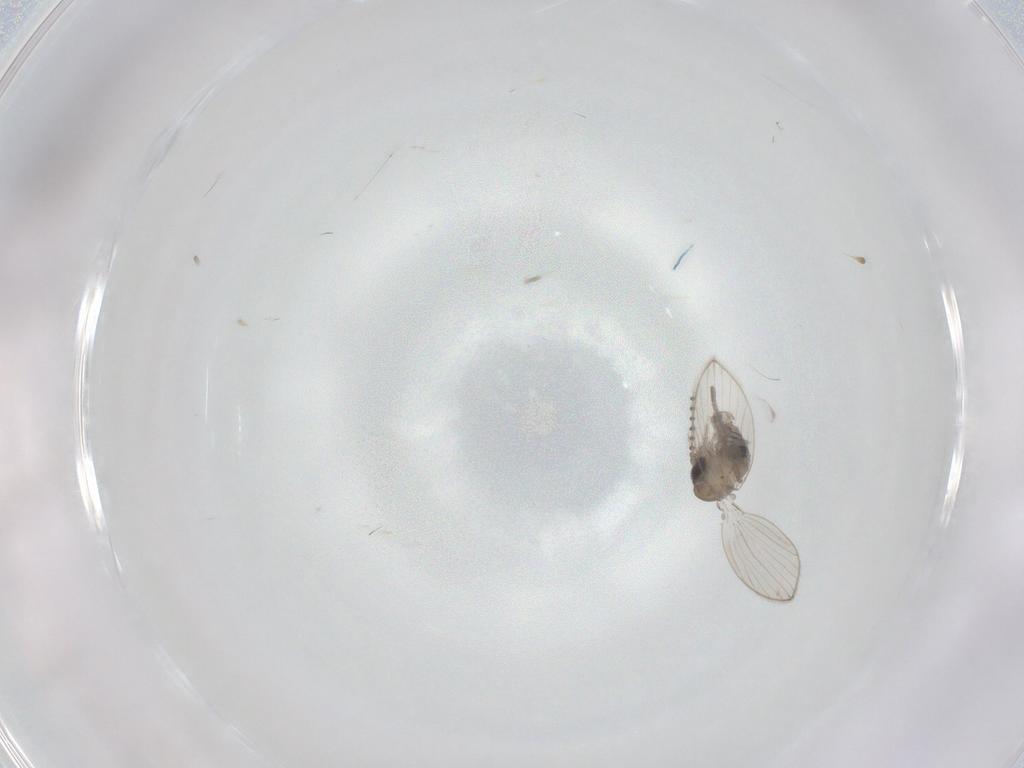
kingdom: Animalia
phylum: Arthropoda
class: Insecta
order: Diptera
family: Psychodidae
